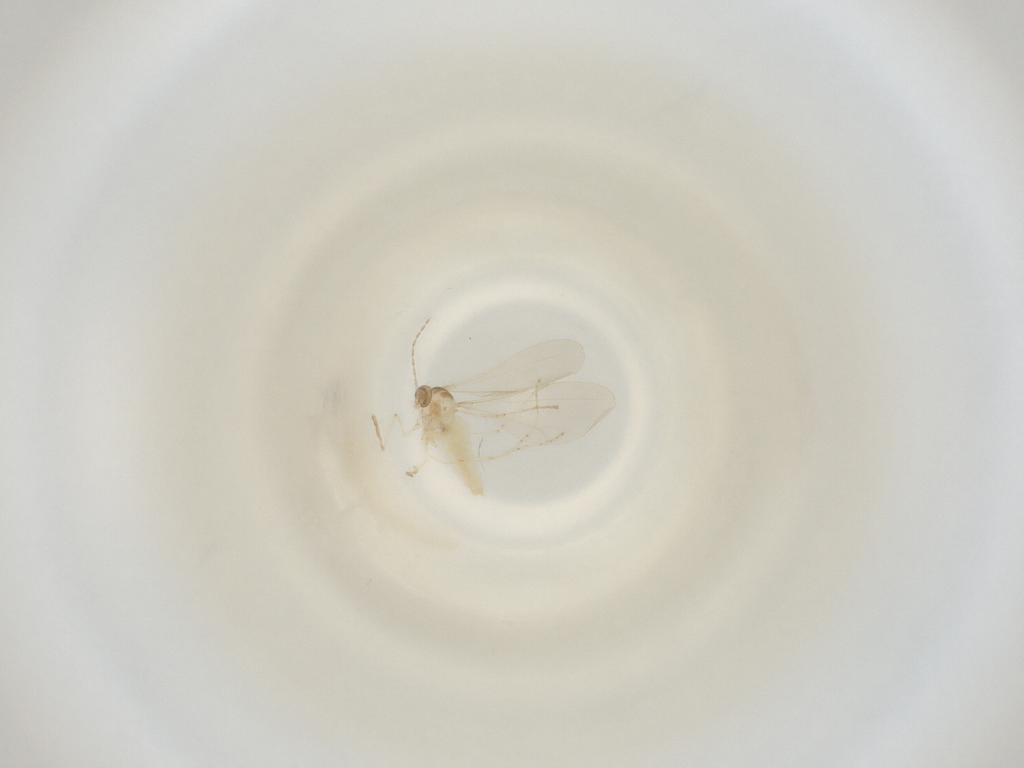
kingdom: Animalia
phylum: Arthropoda
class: Insecta
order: Diptera
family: Cecidomyiidae
